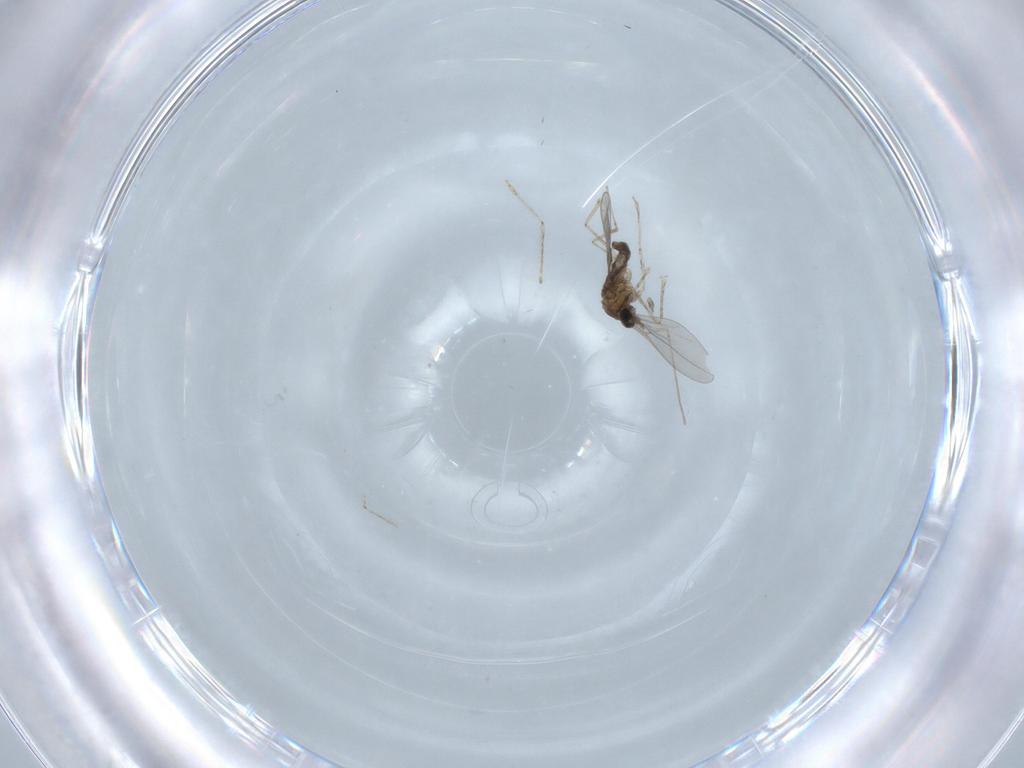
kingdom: Animalia
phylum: Arthropoda
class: Insecta
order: Diptera
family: Cecidomyiidae
